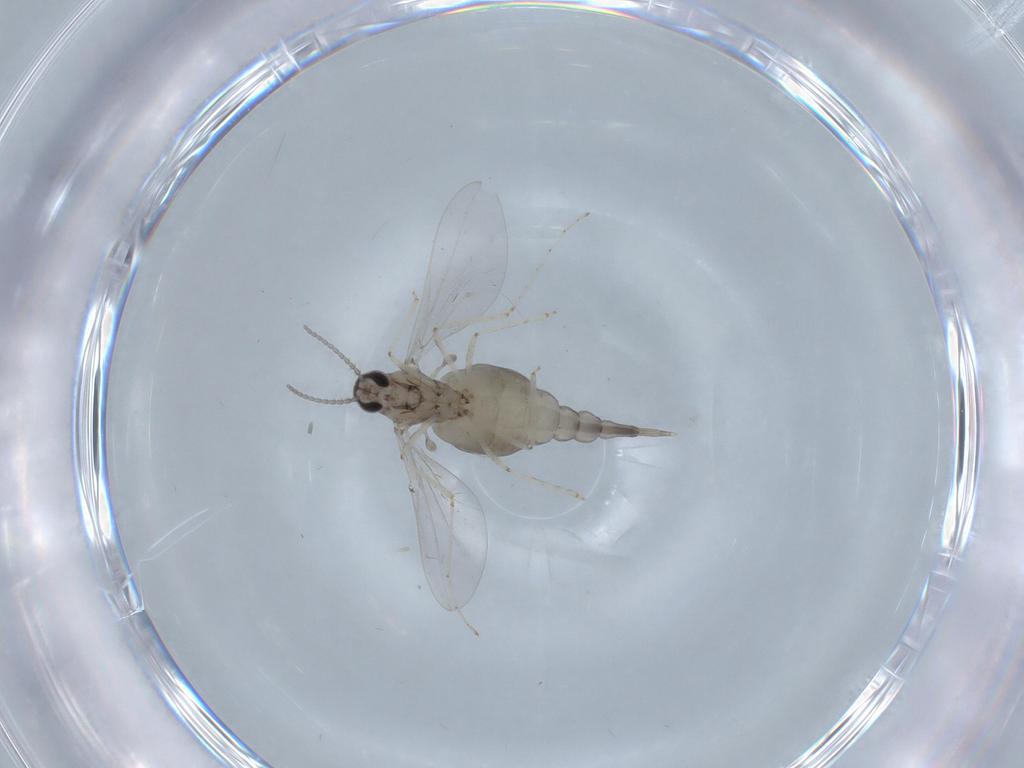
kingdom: Animalia
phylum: Arthropoda
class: Insecta
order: Diptera
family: Cecidomyiidae
